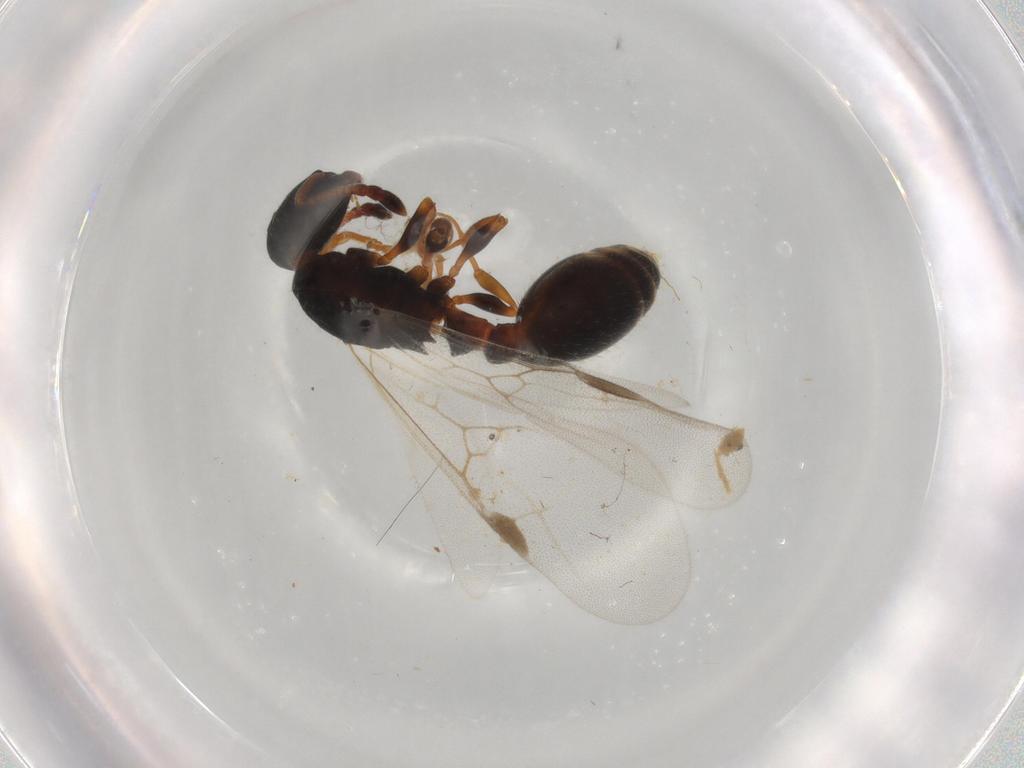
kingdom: Animalia
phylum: Arthropoda
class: Insecta
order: Hymenoptera
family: Formicidae
